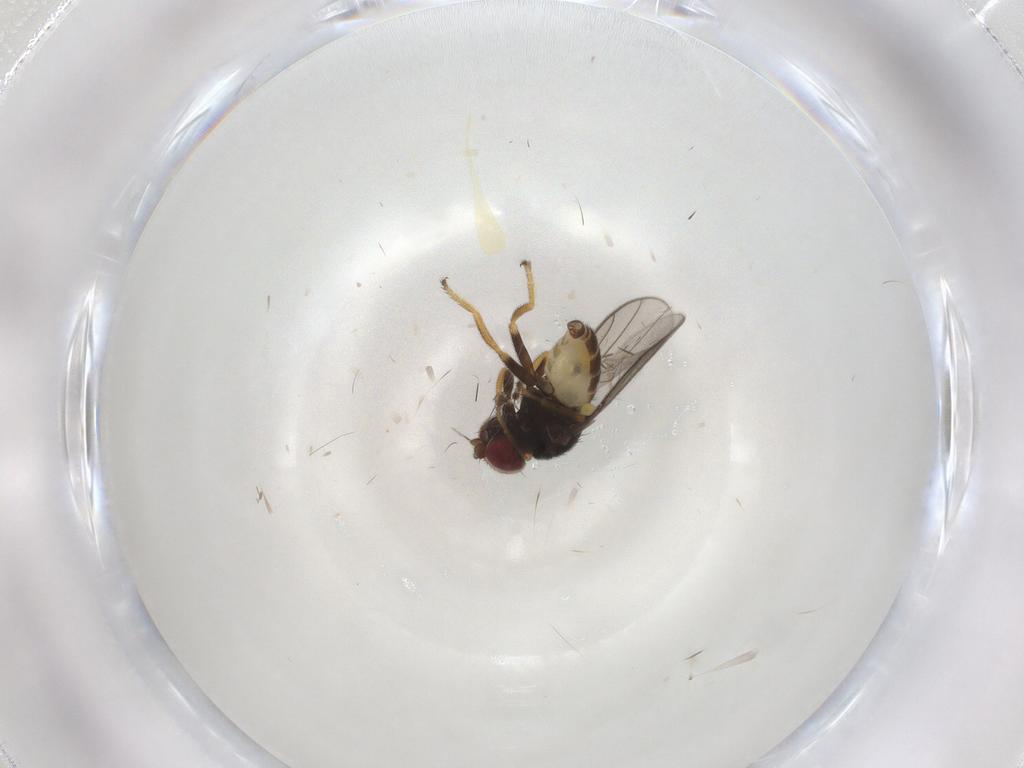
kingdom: Animalia
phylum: Arthropoda
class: Insecta
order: Diptera
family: Chloropidae
